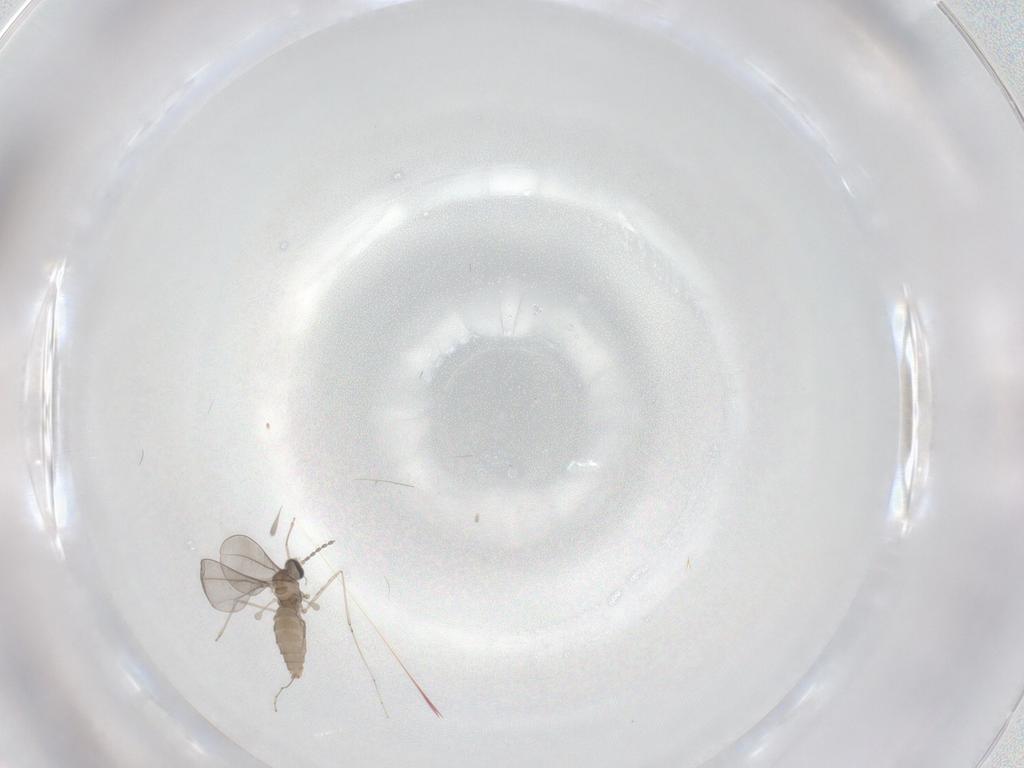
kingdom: Animalia
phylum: Arthropoda
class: Insecta
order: Diptera
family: Cecidomyiidae
